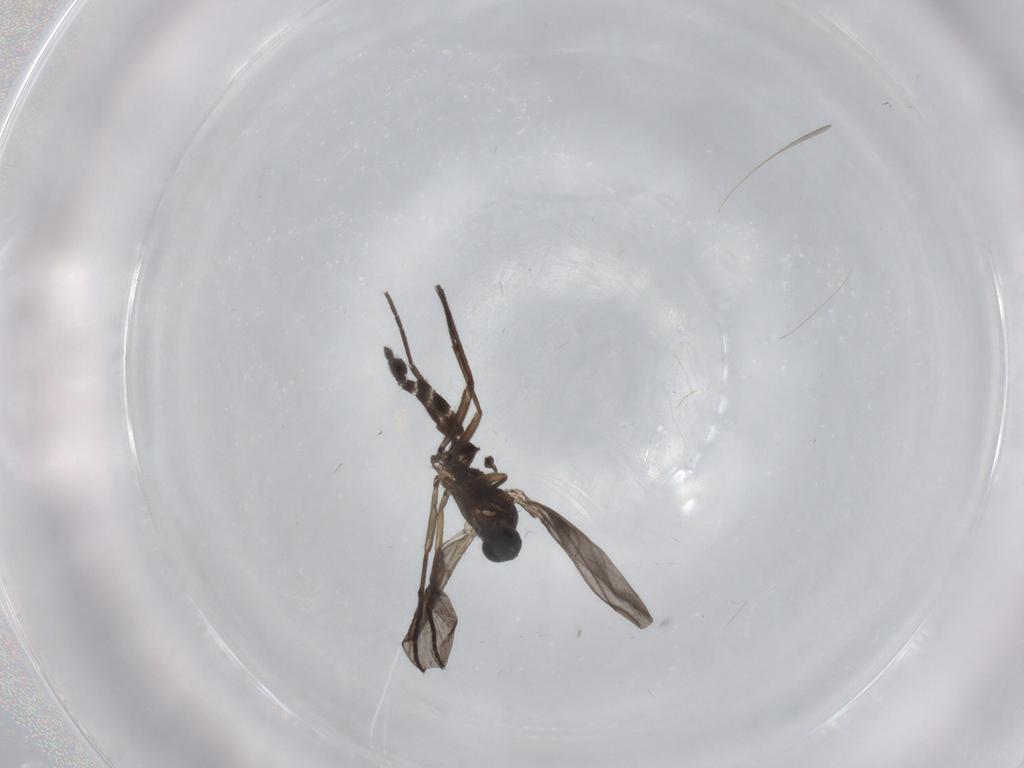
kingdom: Animalia
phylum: Arthropoda
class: Insecta
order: Diptera
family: Sciaridae
